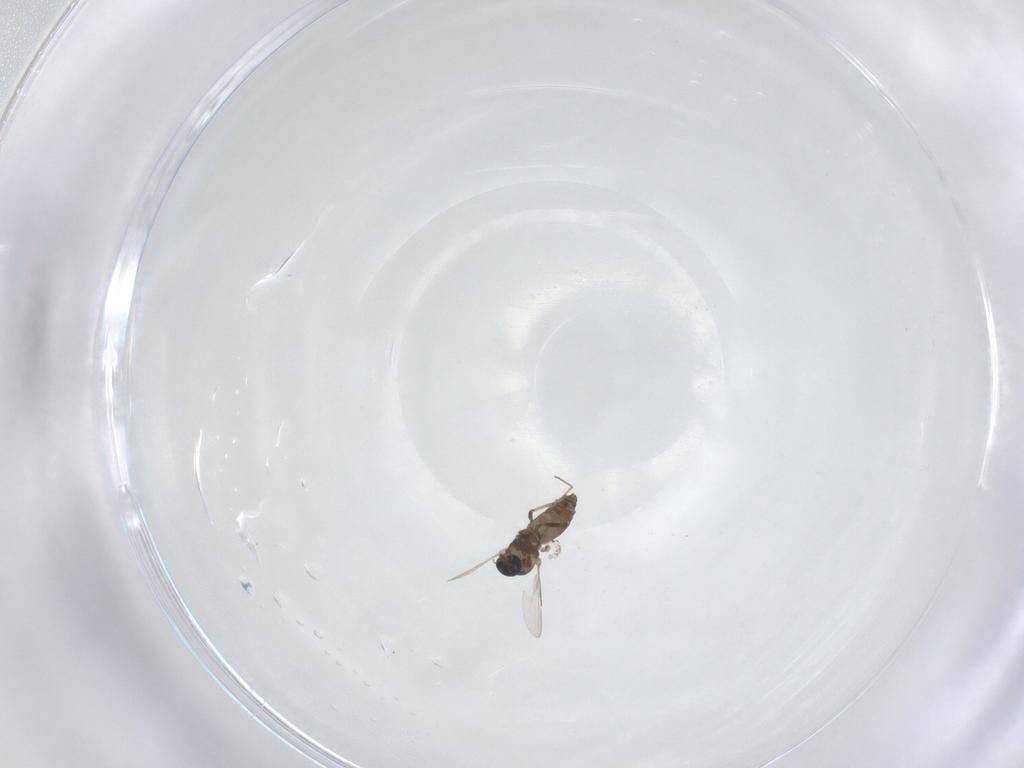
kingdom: Animalia
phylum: Arthropoda
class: Insecta
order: Diptera
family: Ceratopogonidae
